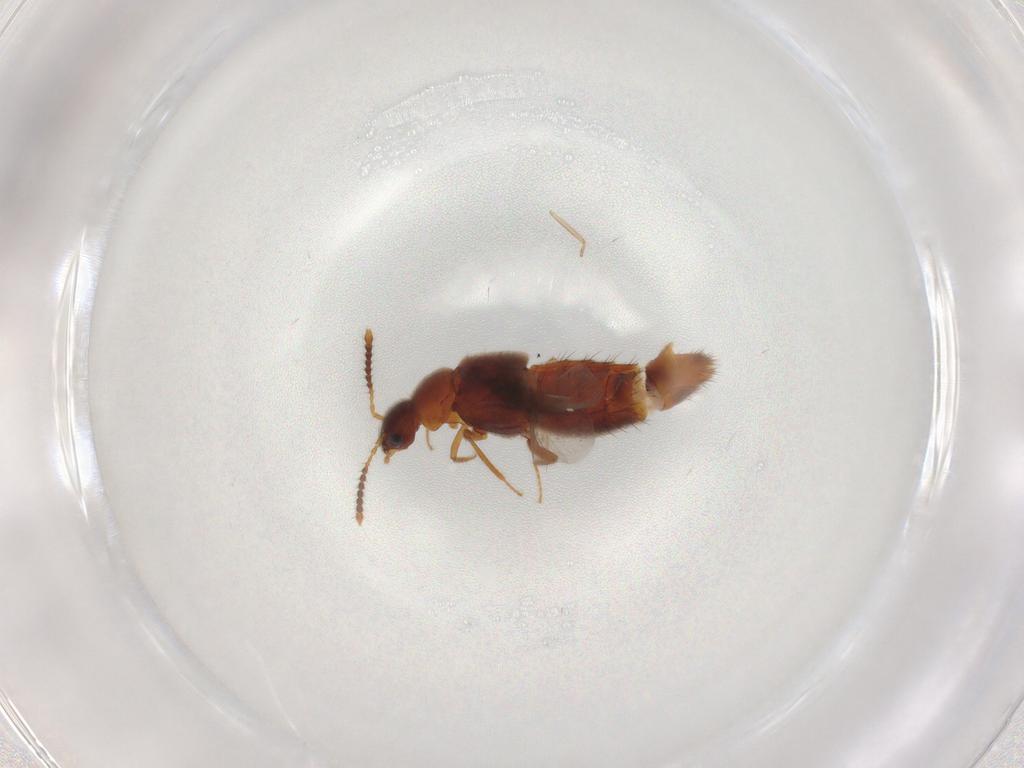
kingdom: Animalia
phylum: Arthropoda
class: Insecta
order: Coleoptera
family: Staphylinidae
